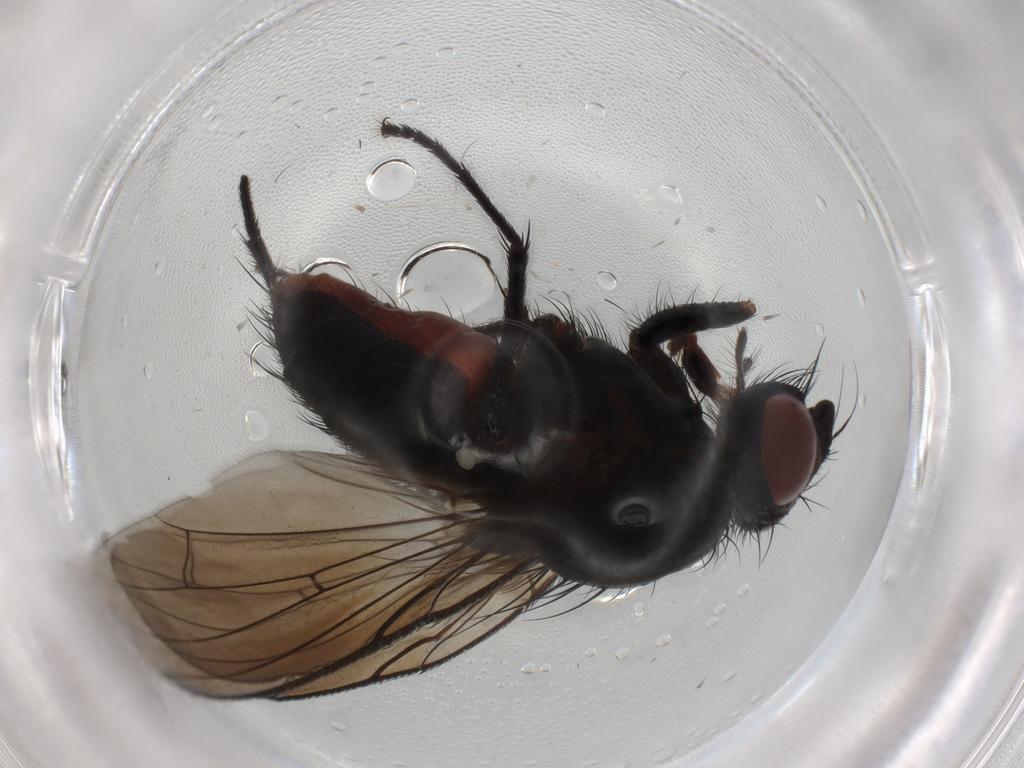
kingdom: Animalia
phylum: Arthropoda
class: Insecta
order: Diptera
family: Anthomyiidae
